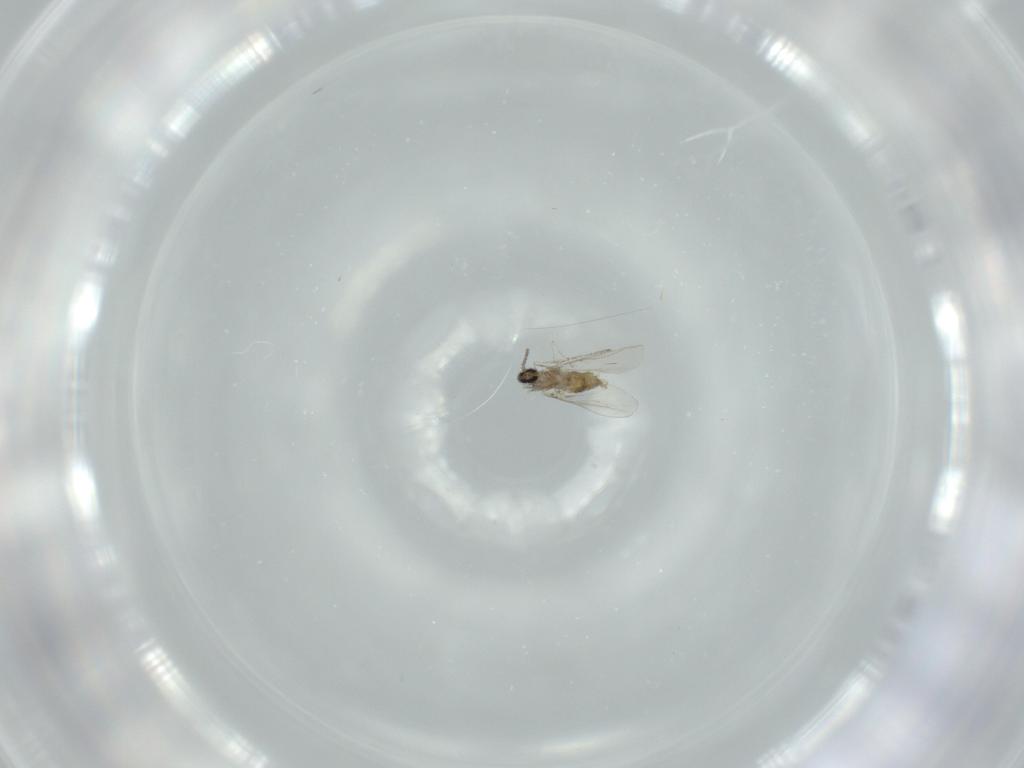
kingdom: Animalia
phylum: Arthropoda
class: Insecta
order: Diptera
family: Cecidomyiidae
